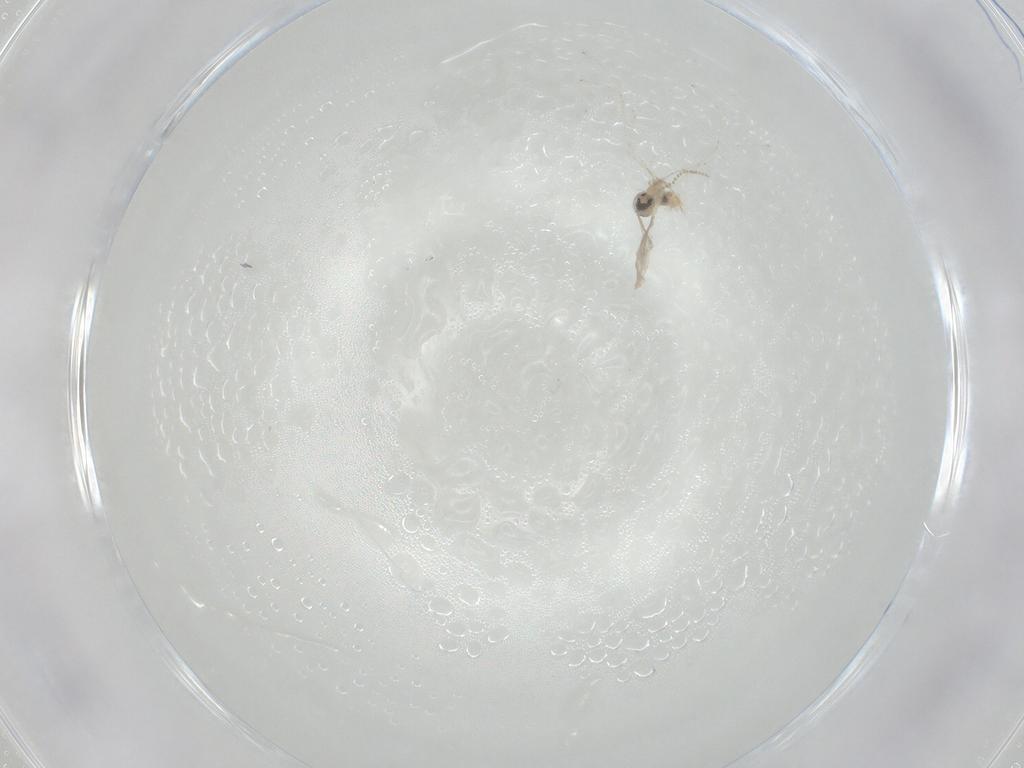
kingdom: Animalia
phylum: Arthropoda
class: Insecta
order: Diptera
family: Cecidomyiidae
